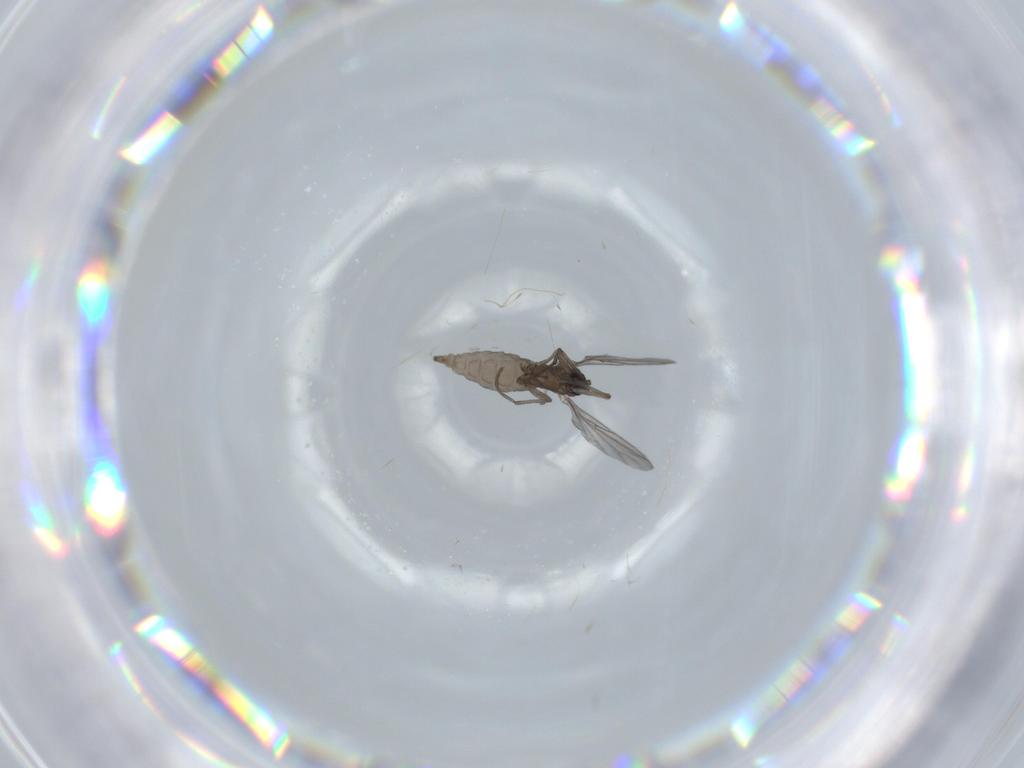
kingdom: Animalia
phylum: Arthropoda
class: Insecta
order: Diptera
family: Sciaridae
